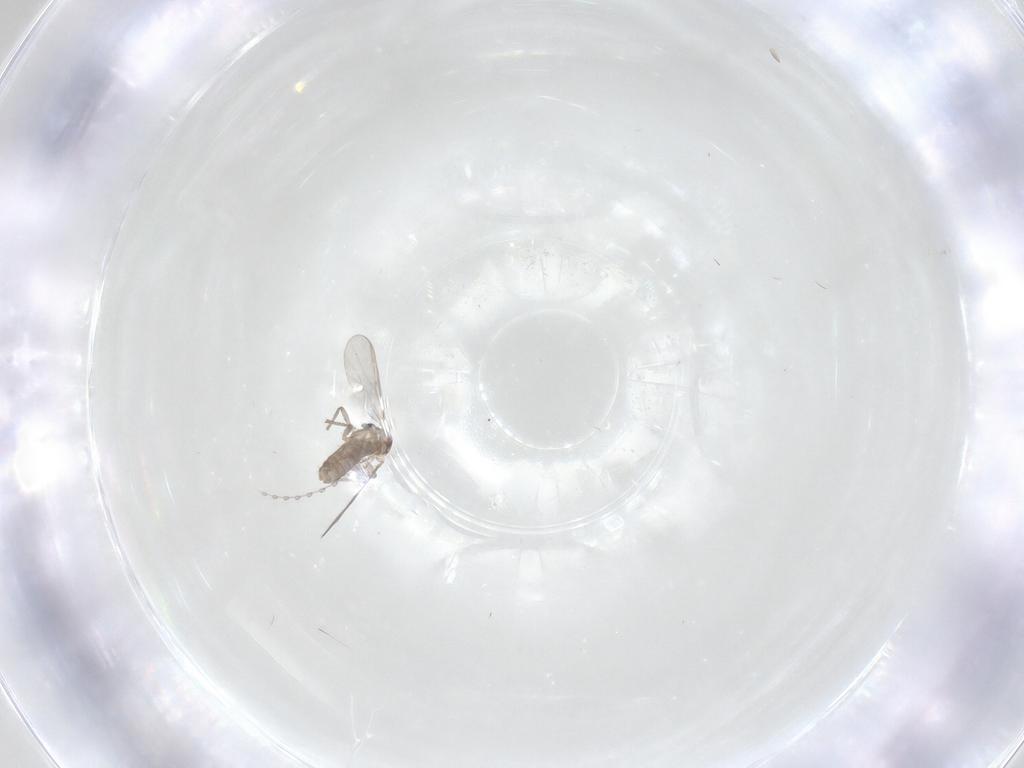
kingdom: Animalia
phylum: Arthropoda
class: Insecta
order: Diptera
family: Chironomidae
